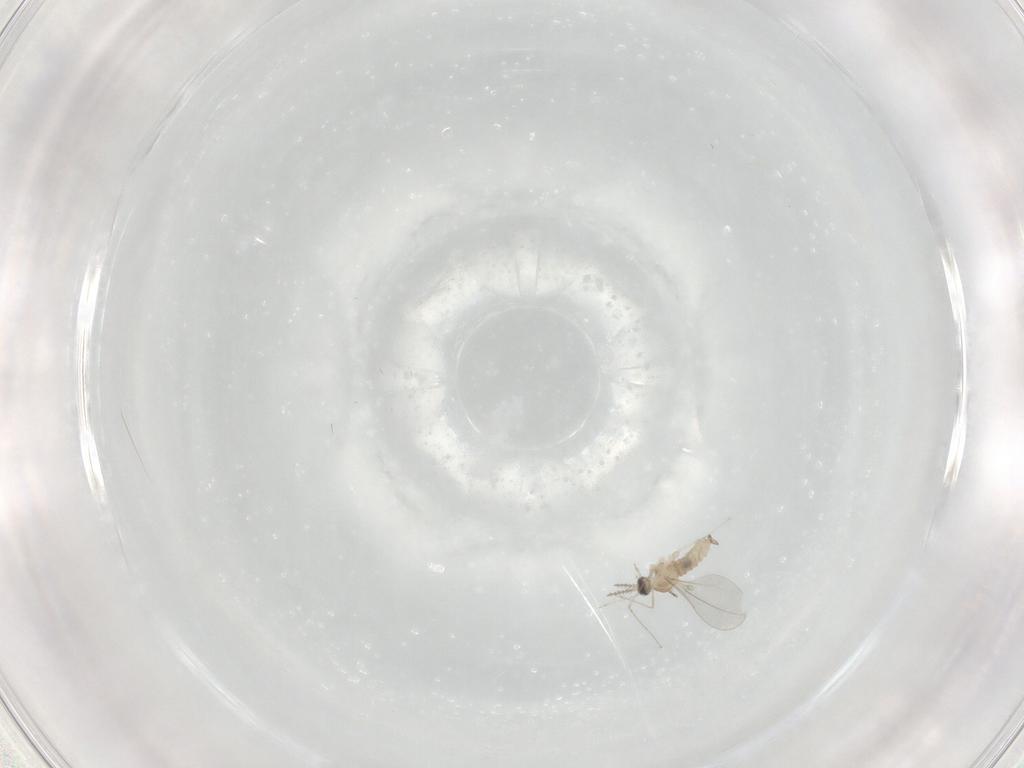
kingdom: Animalia
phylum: Arthropoda
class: Insecta
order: Diptera
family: Cecidomyiidae
